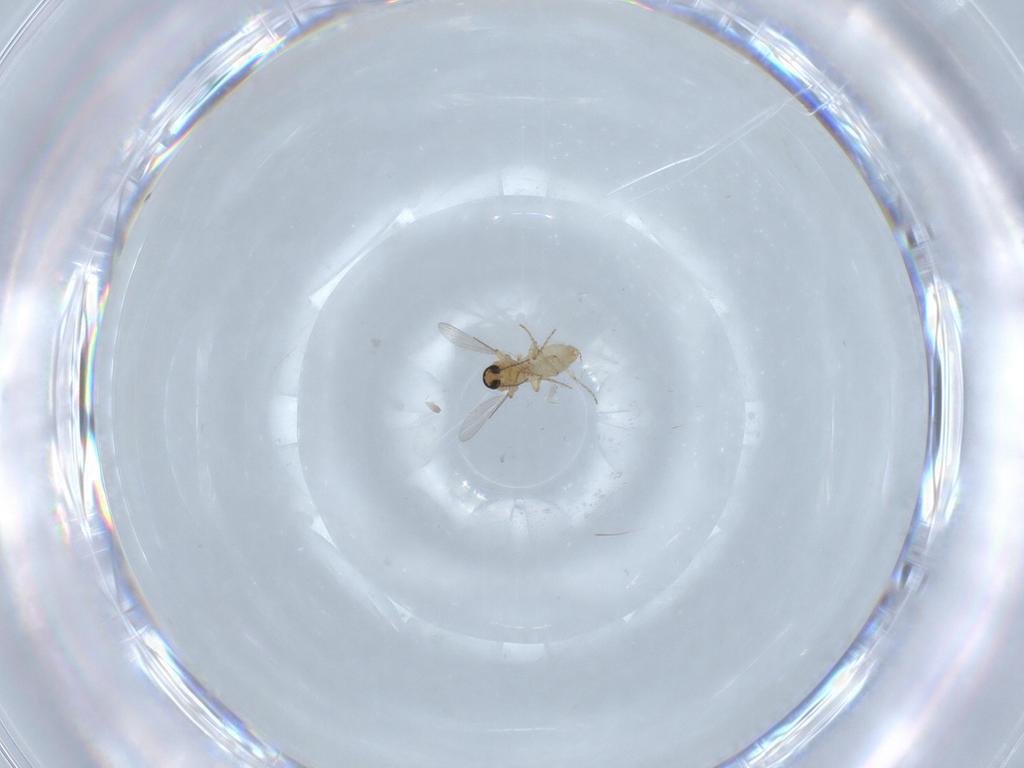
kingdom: Animalia
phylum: Arthropoda
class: Insecta
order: Diptera
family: Ceratopogonidae
